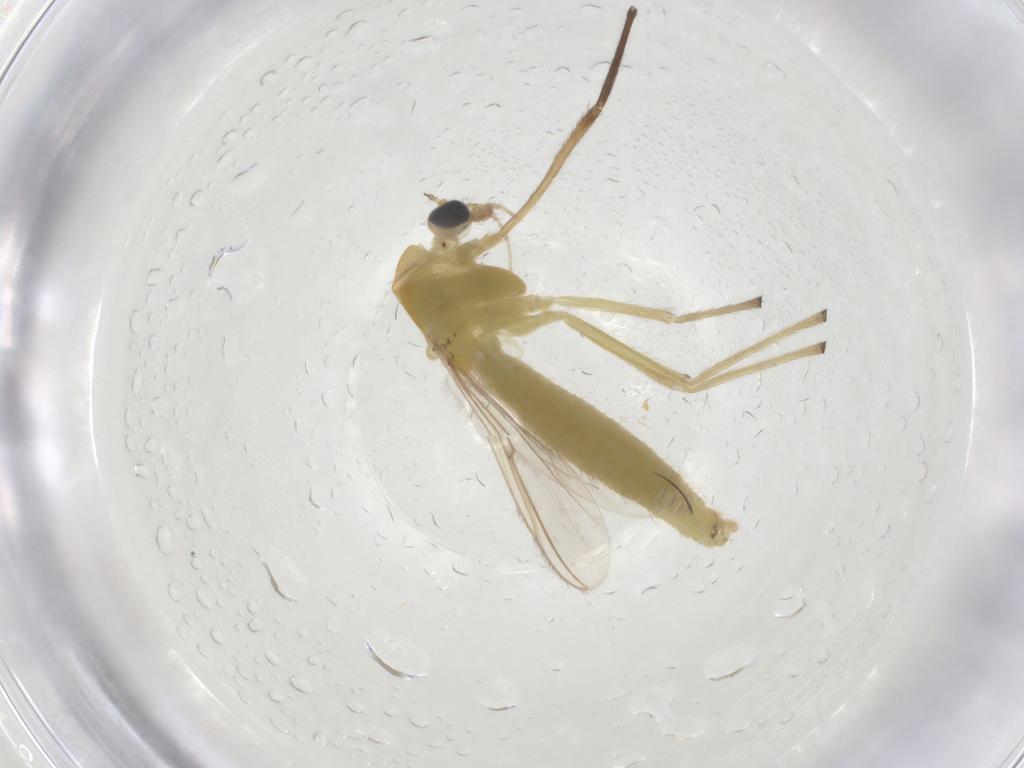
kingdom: Animalia
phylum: Arthropoda
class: Insecta
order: Diptera
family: Chironomidae
